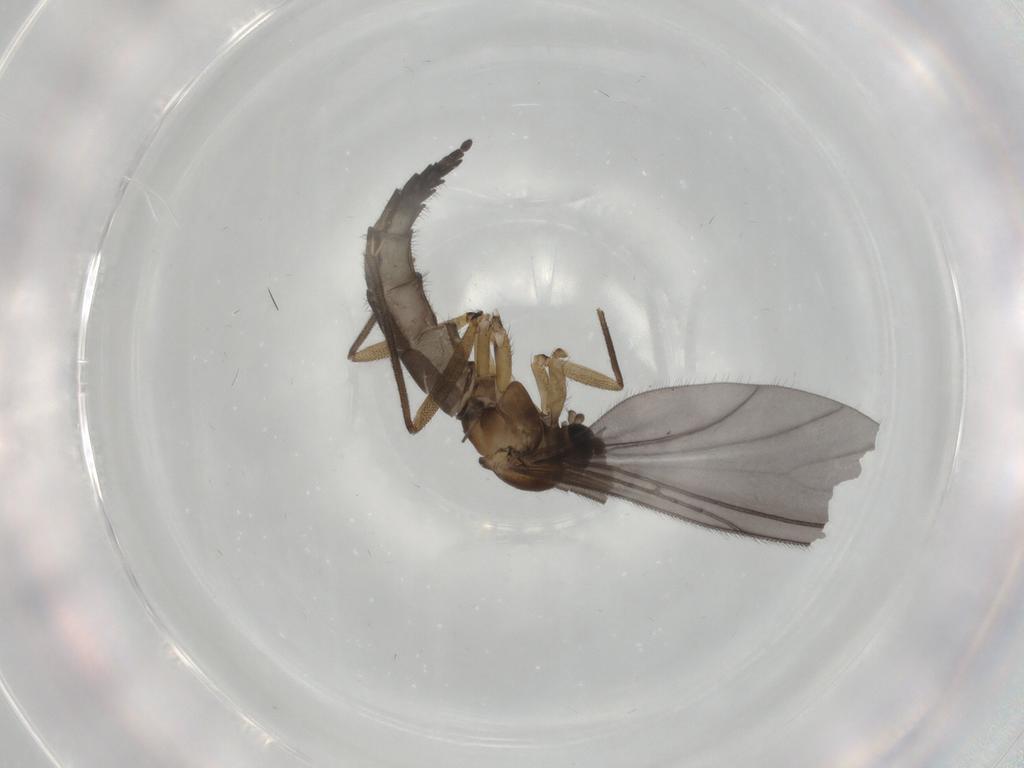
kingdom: Animalia
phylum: Arthropoda
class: Insecta
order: Diptera
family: Sciaridae
